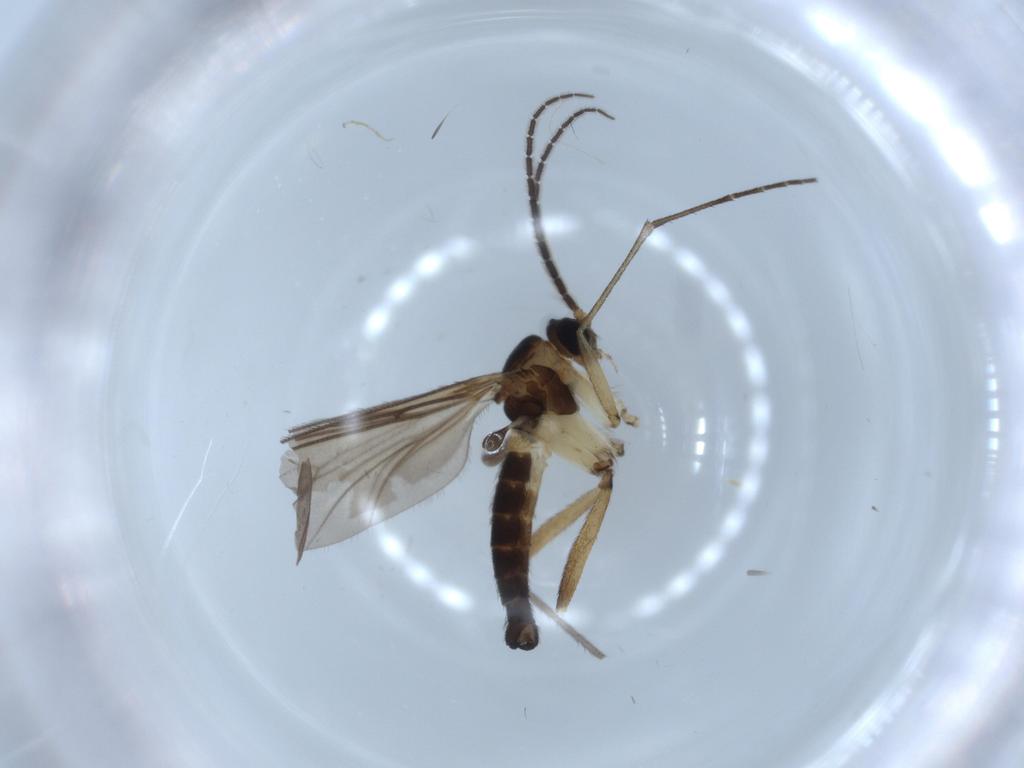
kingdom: Animalia
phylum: Arthropoda
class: Insecta
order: Diptera
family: Sciaridae
